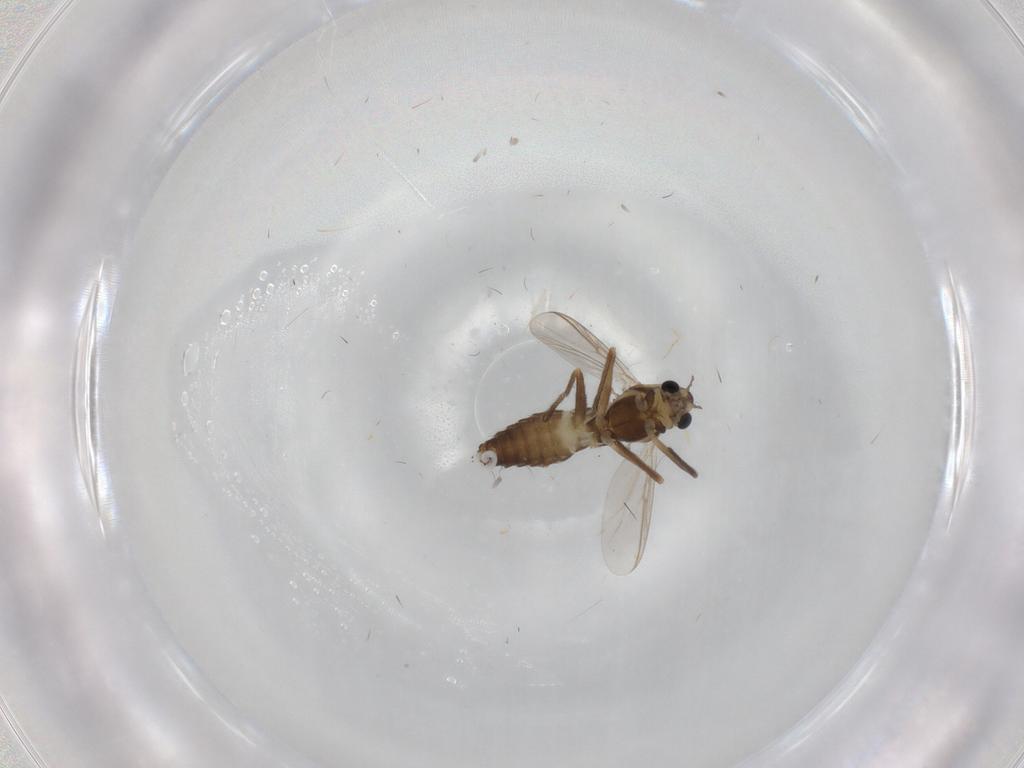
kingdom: Animalia
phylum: Arthropoda
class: Insecta
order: Diptera
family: Chironomidae
